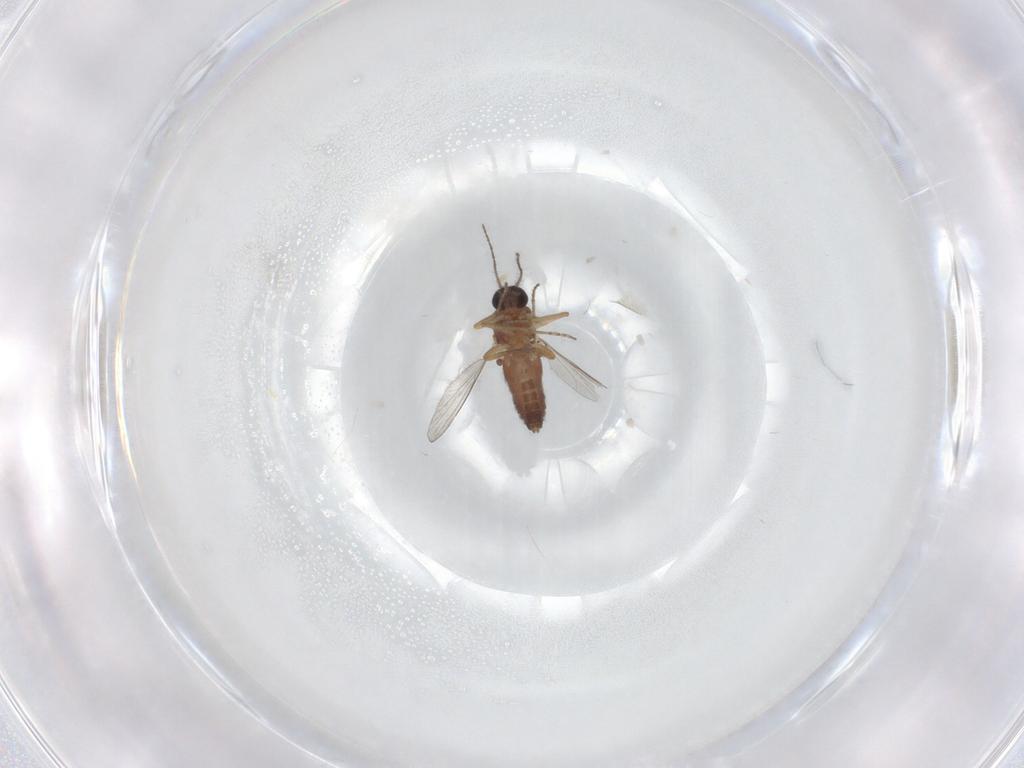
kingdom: Animalia
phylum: Arthropoda
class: Insecta
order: Diptera
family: Ceratopogonidae
